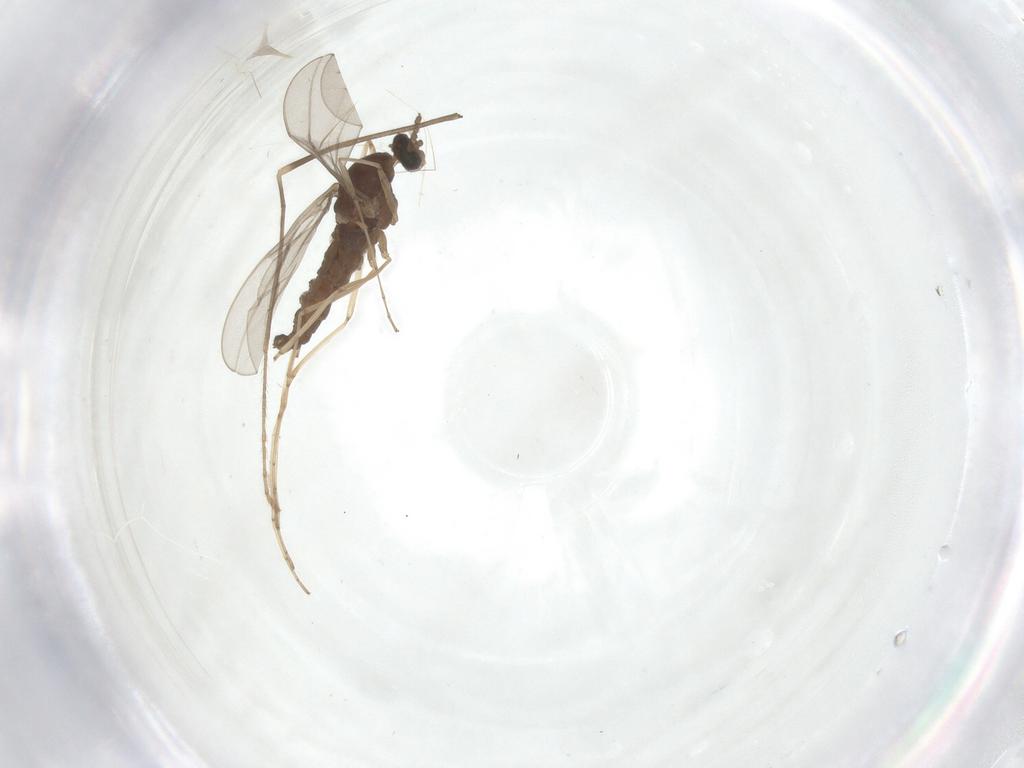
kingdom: Animalia
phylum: Arthropoda
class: Insecta
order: Diptera
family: Limoniidae
